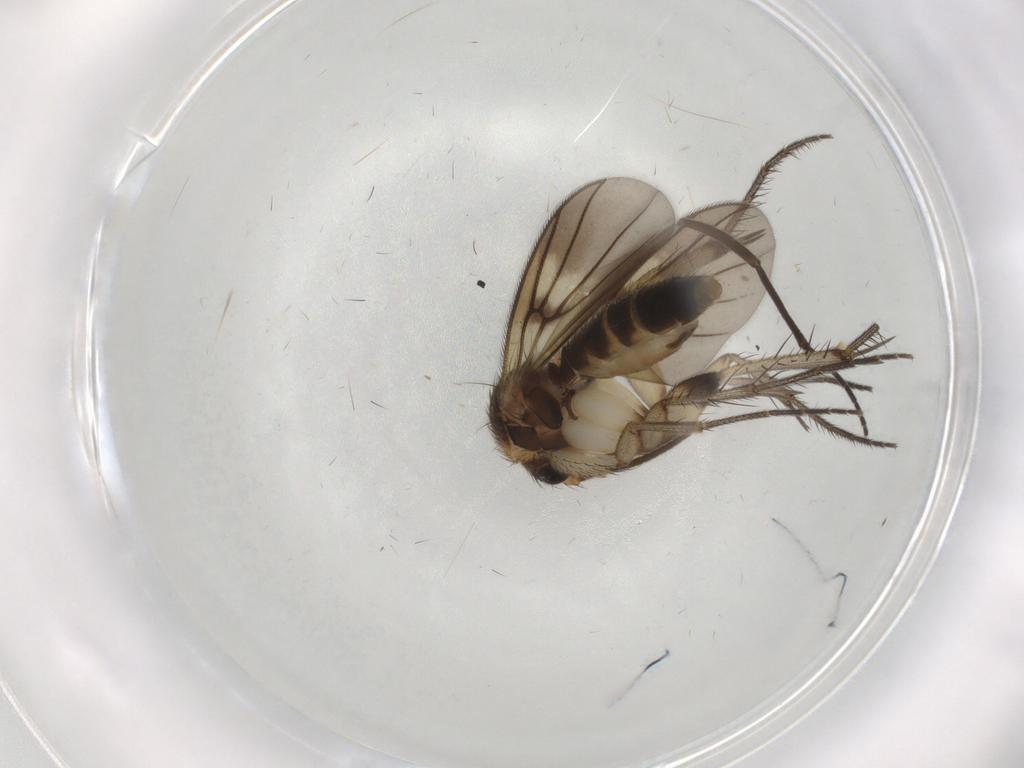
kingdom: Animalia
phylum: Arthropoda
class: Insecta
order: Diptera
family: Mycetophilidae
